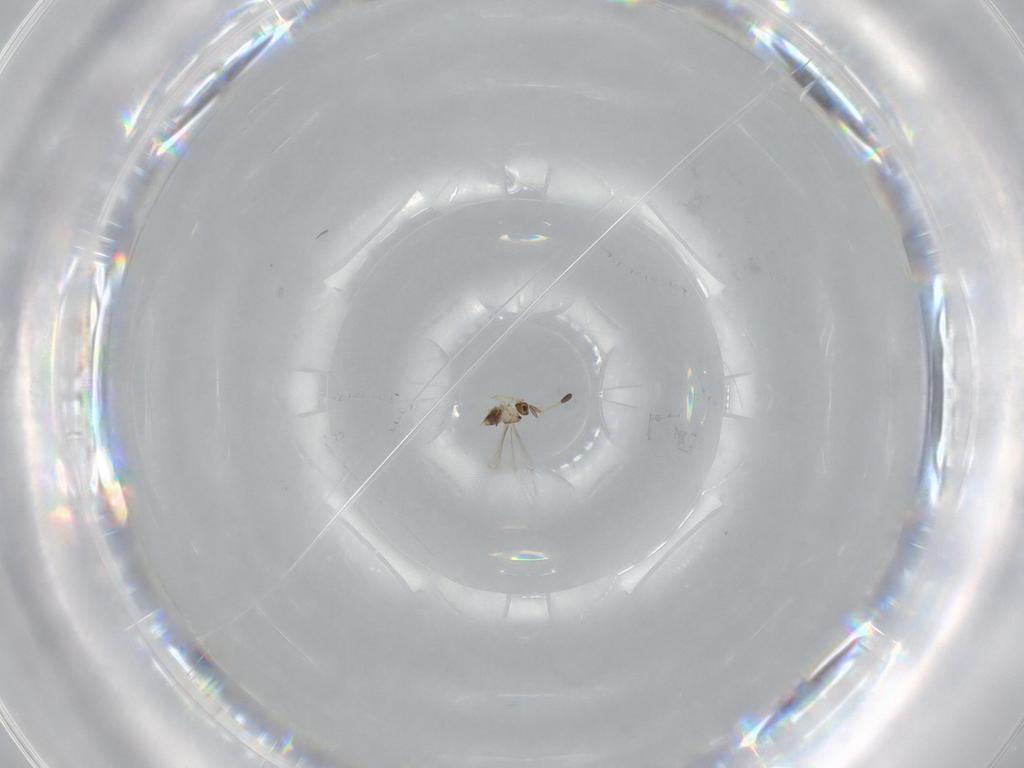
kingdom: Animalia
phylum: Arthropoda
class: Insecta
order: Hymenoptera
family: Mymaridae
